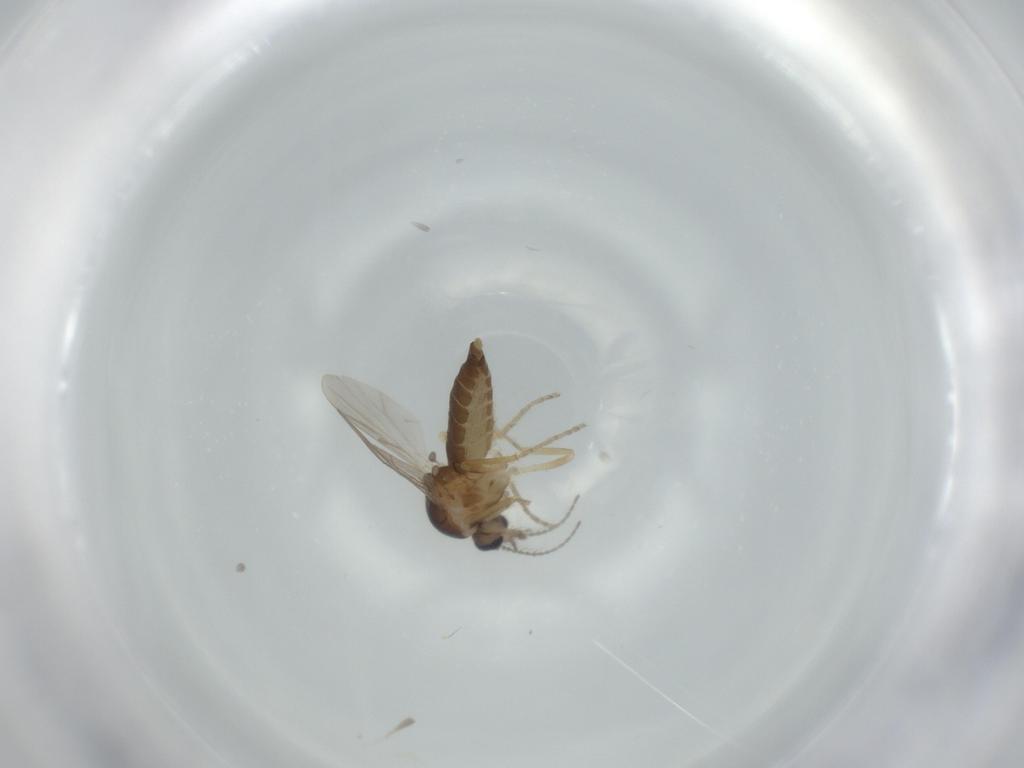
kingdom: Animalia
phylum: Arthropoda
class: Insecta
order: Diptera
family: Ceratopogonidae
